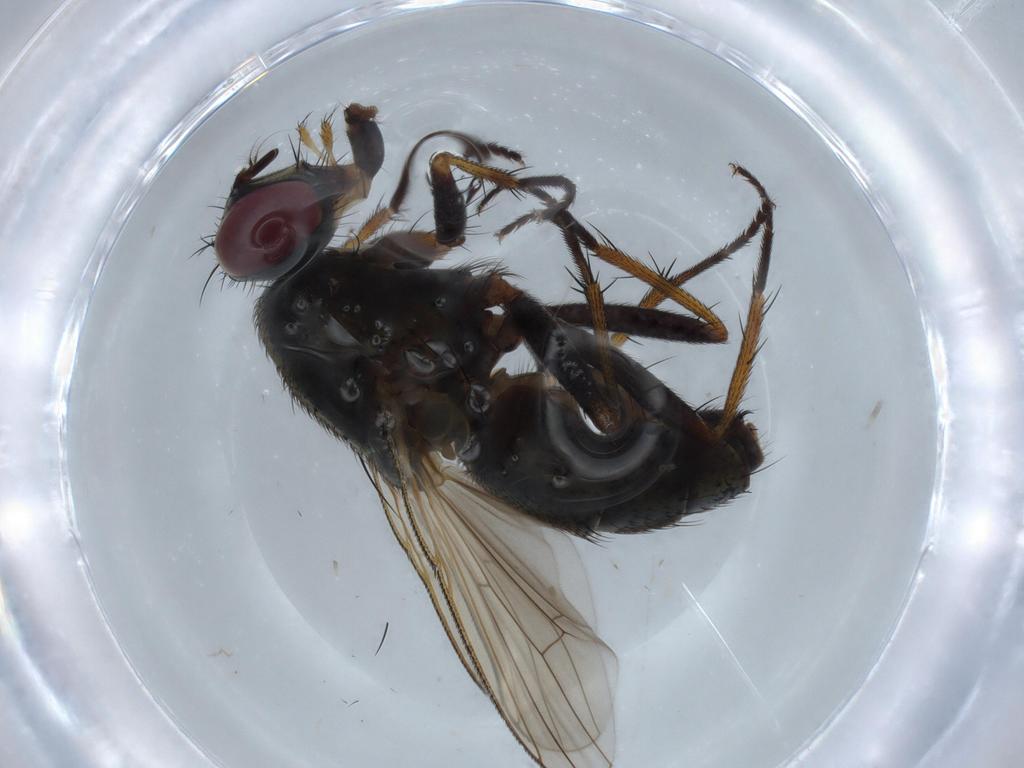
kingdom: Animalia
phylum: Arthropoda
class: Insecta
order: Diptera
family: Muscidae
